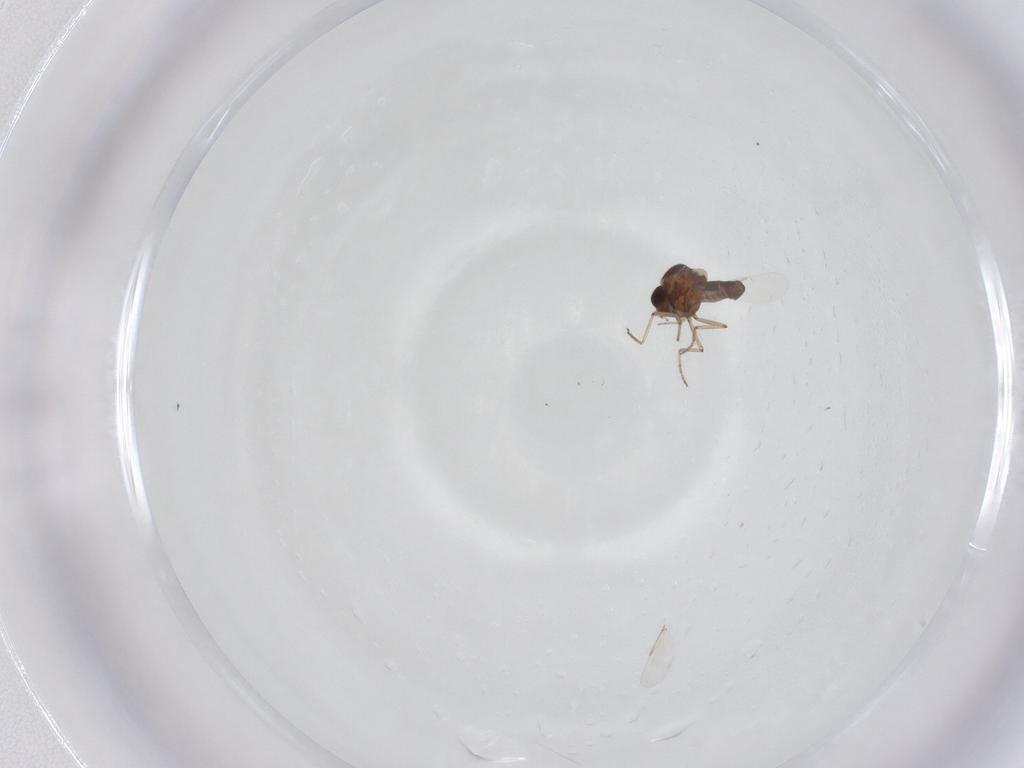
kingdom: Animalia
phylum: Arthropoda
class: Insecta
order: Diptera
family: Ceratopogonidae
